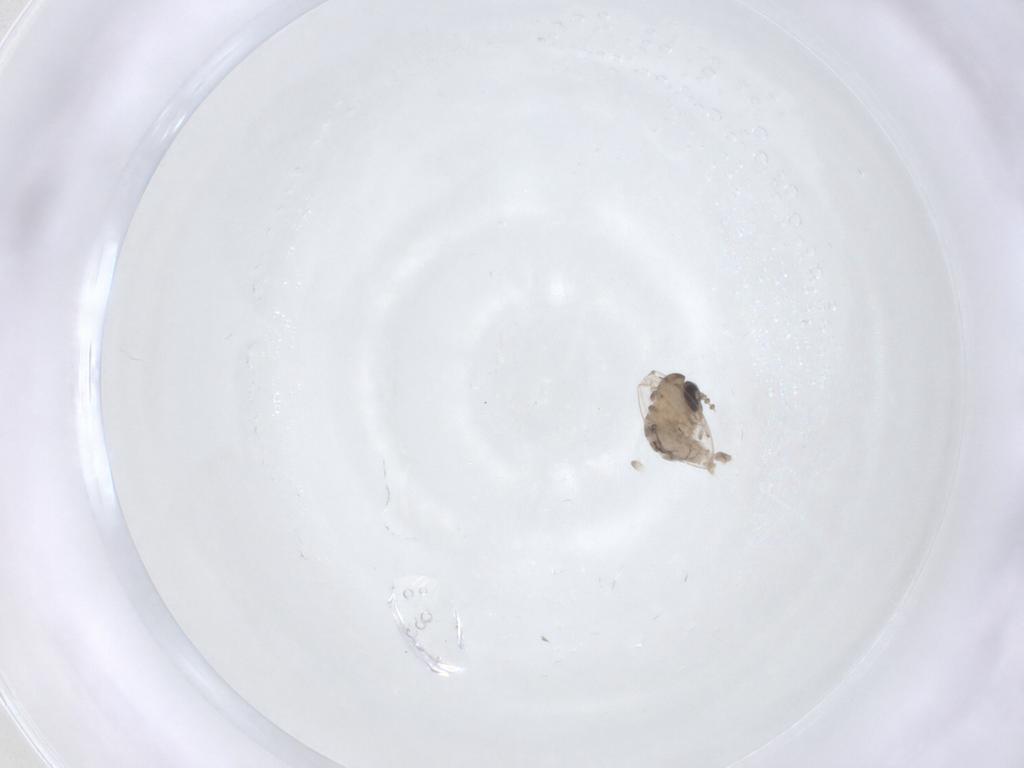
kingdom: Animalia
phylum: Arthropoda
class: Insecta
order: Diptera
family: Psychodidae
